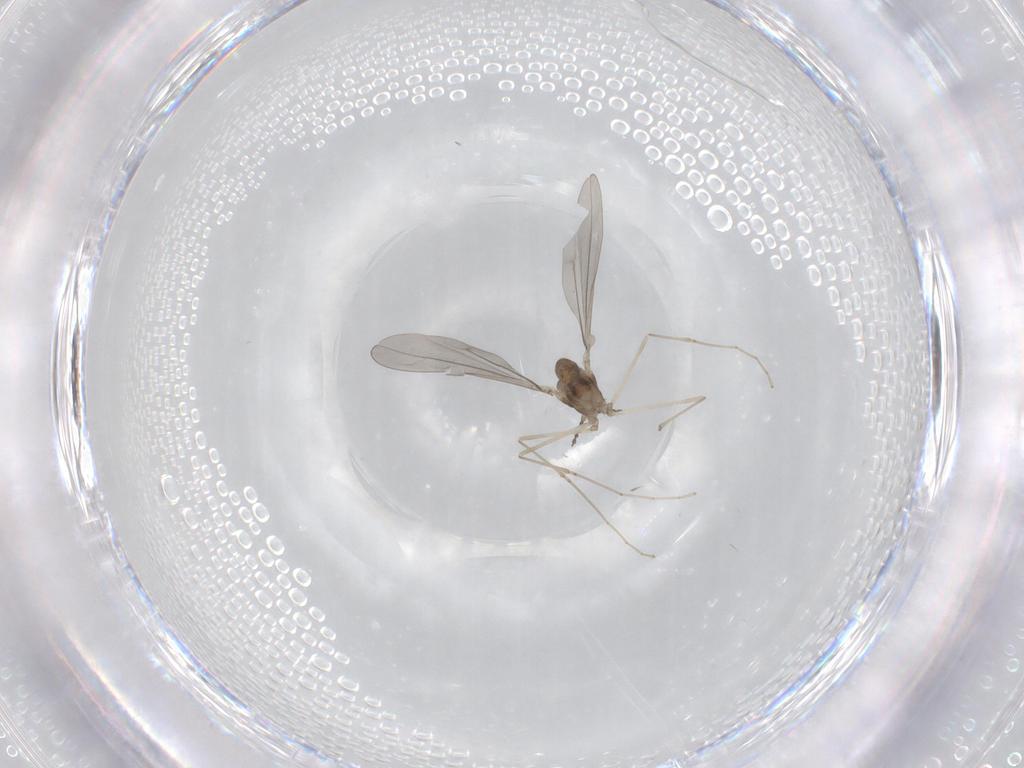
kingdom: Animalia
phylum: Arthropoda
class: Insecta
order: Diptera
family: Cecidomyiidae
